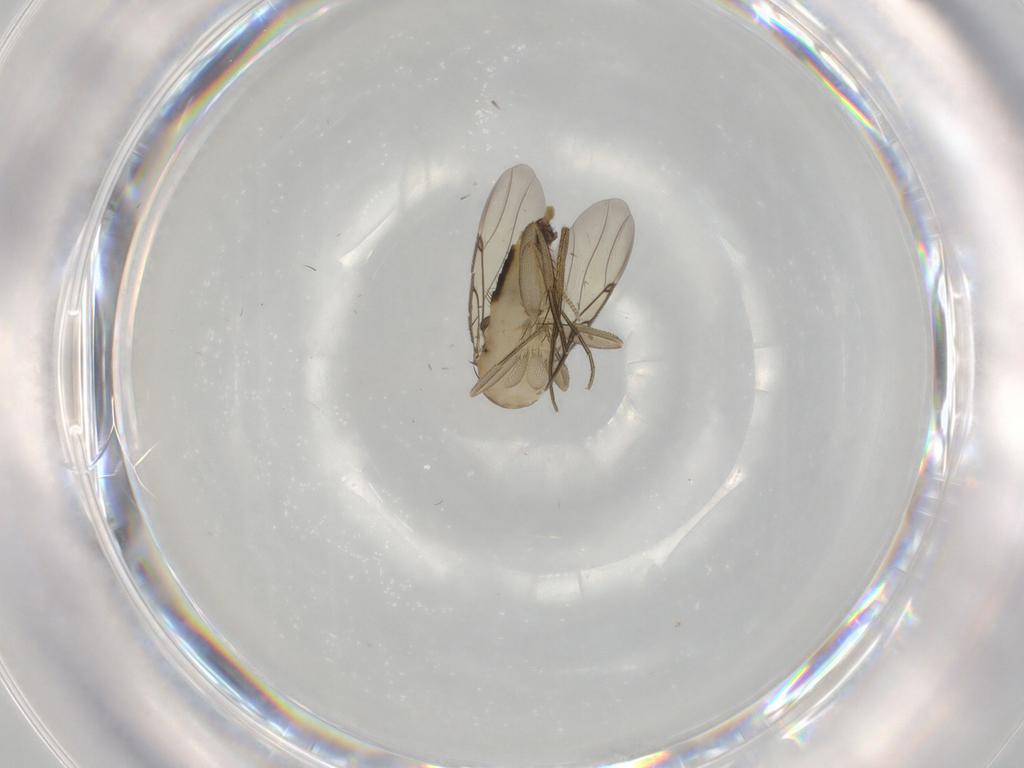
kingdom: Animalia
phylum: Arthropoda
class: Insecta
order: Diptera
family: Chironomidae
